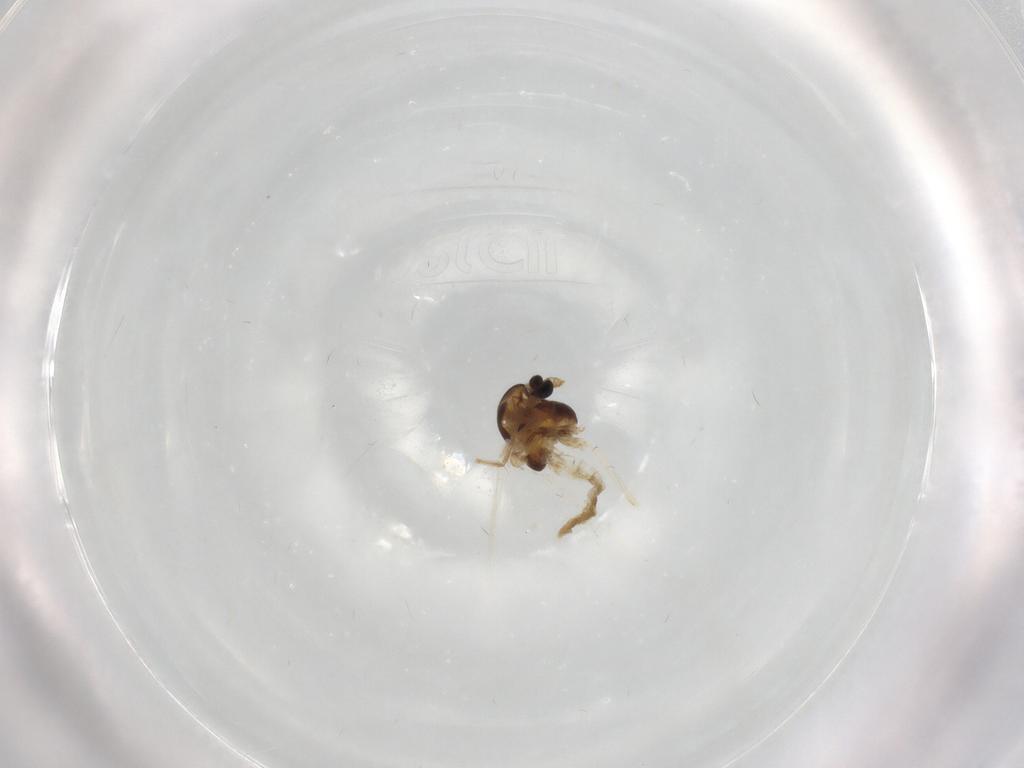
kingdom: Animalia
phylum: Arthropoda
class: Insecta
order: Diptera
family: Chironomidae
